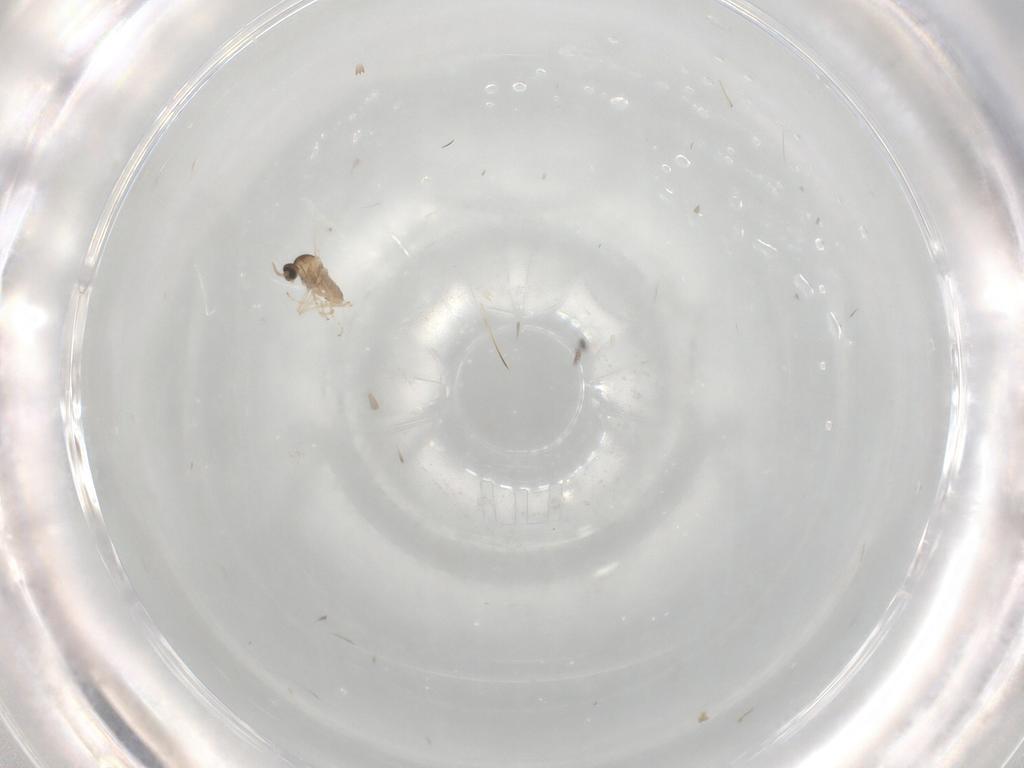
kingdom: Animalia
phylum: Arthropoda
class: Insecta
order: Diptera
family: Cecidomyiidae
